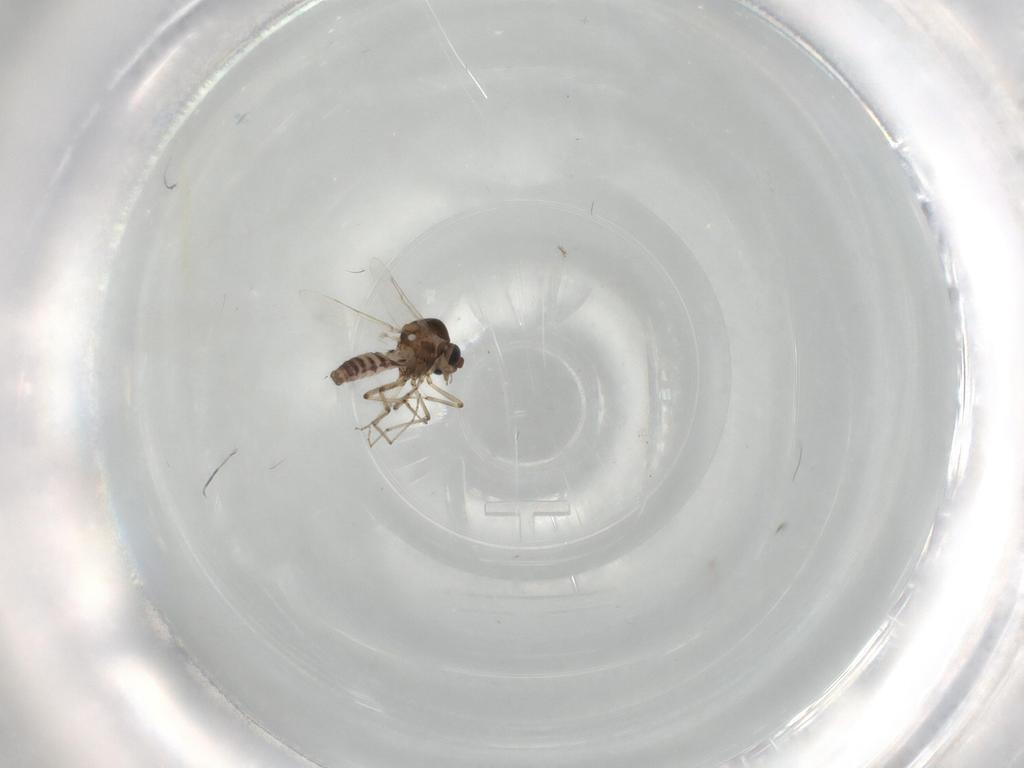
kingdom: Animalia
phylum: Arthropoda
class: Insecta
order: Diptera
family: Ceratopogonidae
